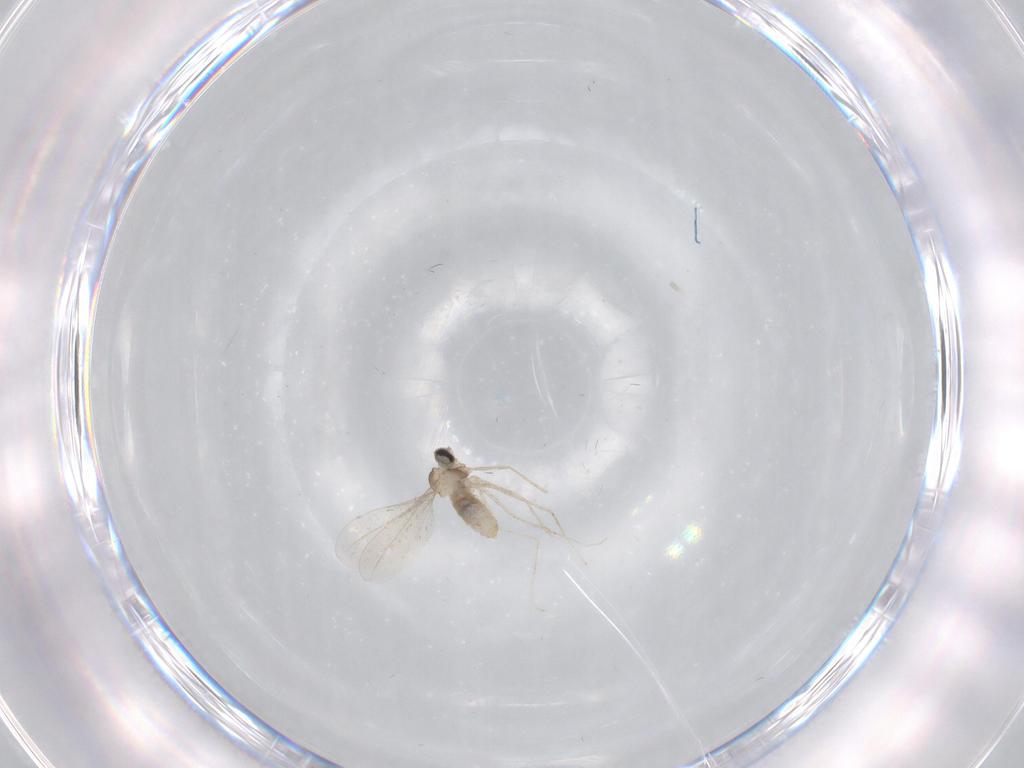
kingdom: Animalia
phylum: Arthropoda
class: Insecta
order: Diptera
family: Cecidomyiidae
